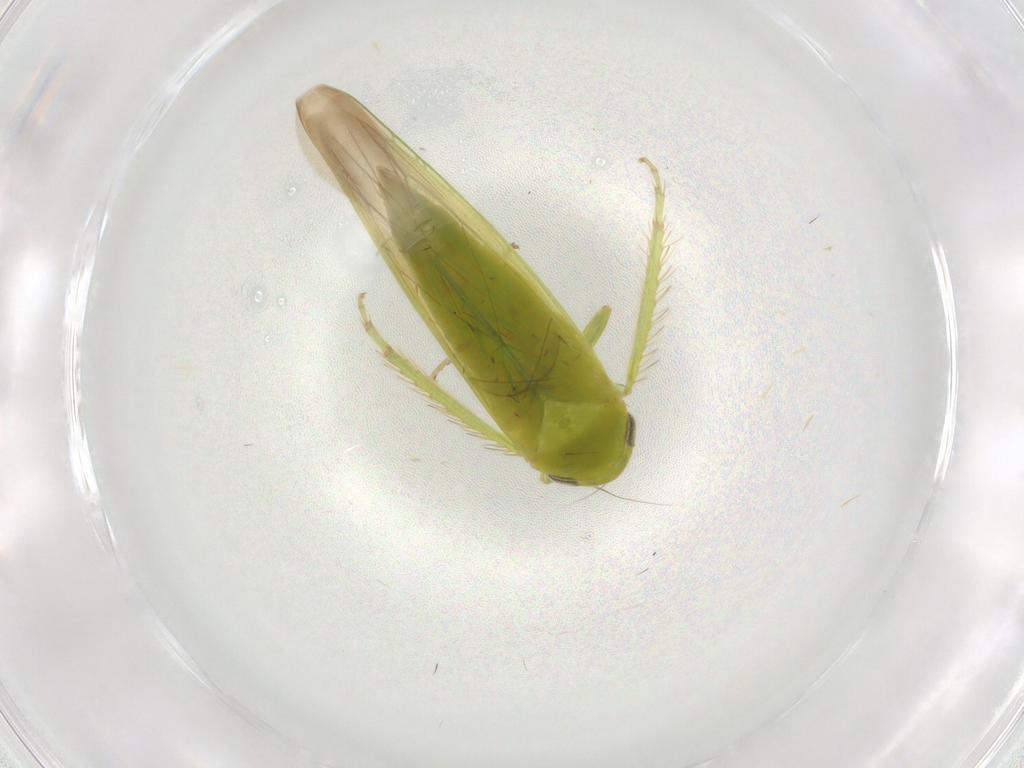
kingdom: Animalia
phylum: Arthropoda
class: Insecta
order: Hemiptera
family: Cicadellidae
